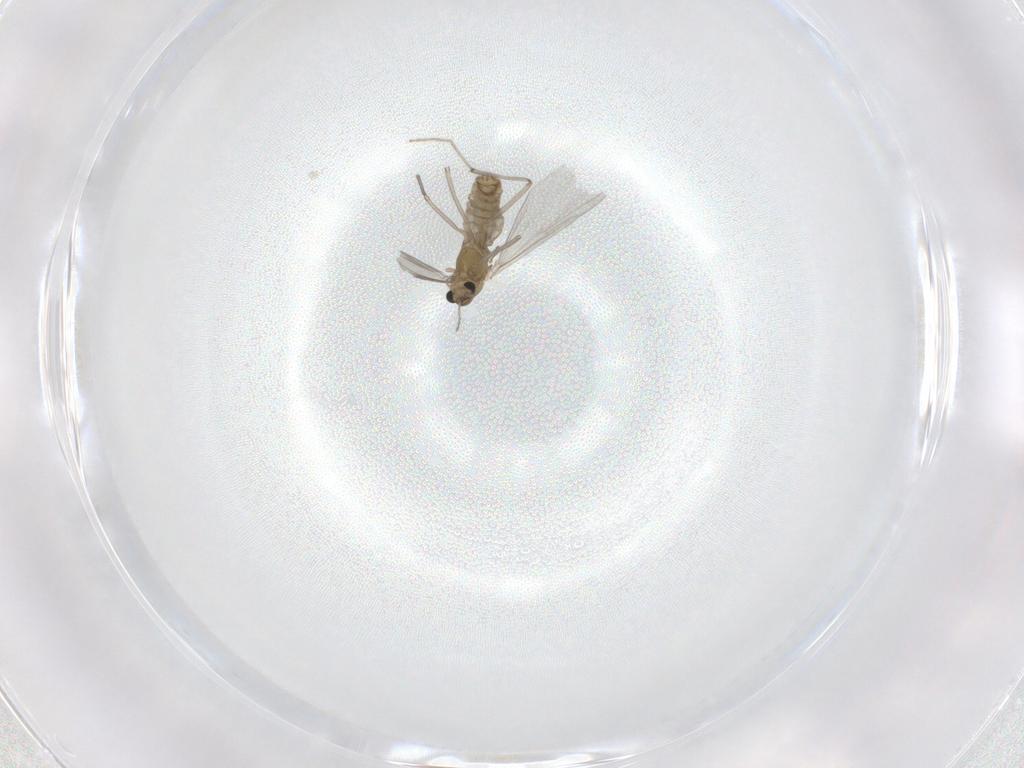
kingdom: Animalia
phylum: Arthropoda
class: Insecta
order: Diptera
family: Chironomidae
